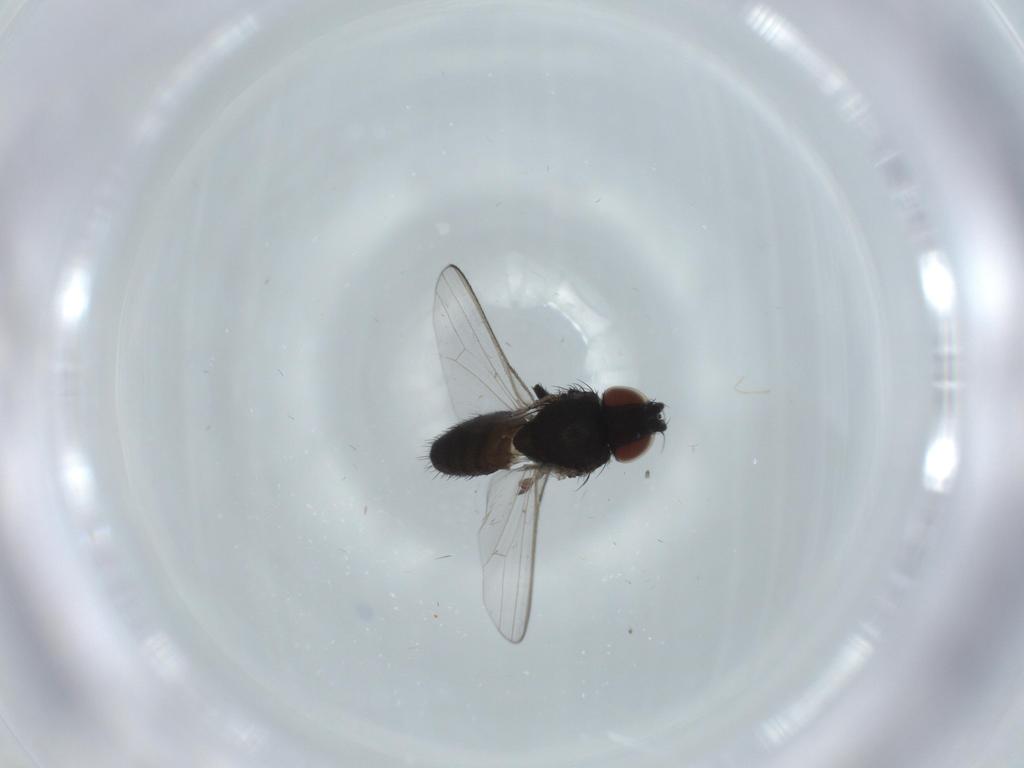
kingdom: Animalia
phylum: Arthropoda
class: Insecta
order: Diptera
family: Milichiidae
